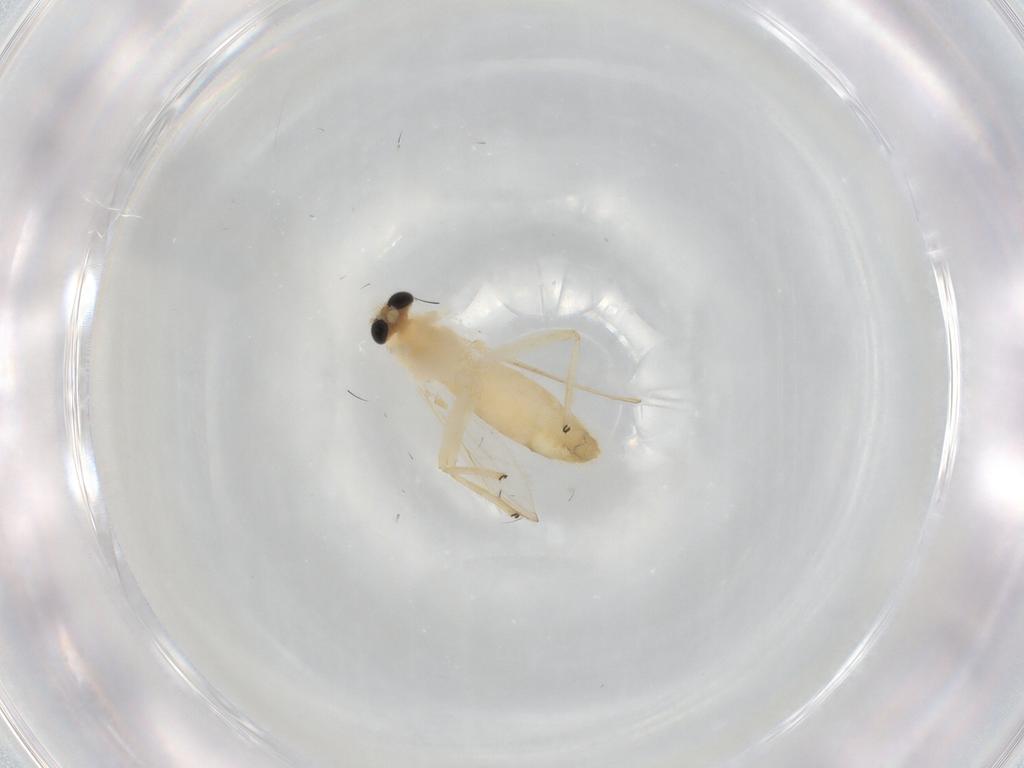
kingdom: Animalia
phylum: Arthropoda
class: Insecta
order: Diptera
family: Chironomidae
